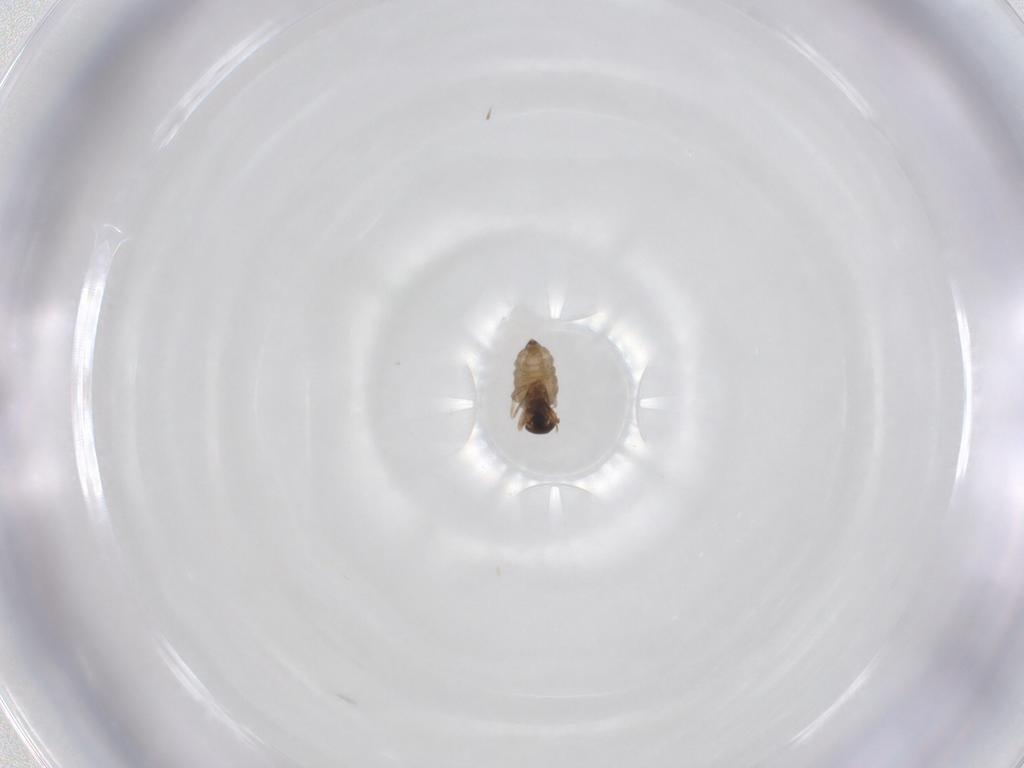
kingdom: Animalia
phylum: Arthropoda
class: Insecta
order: Diptera
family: Cecidomyiidae
